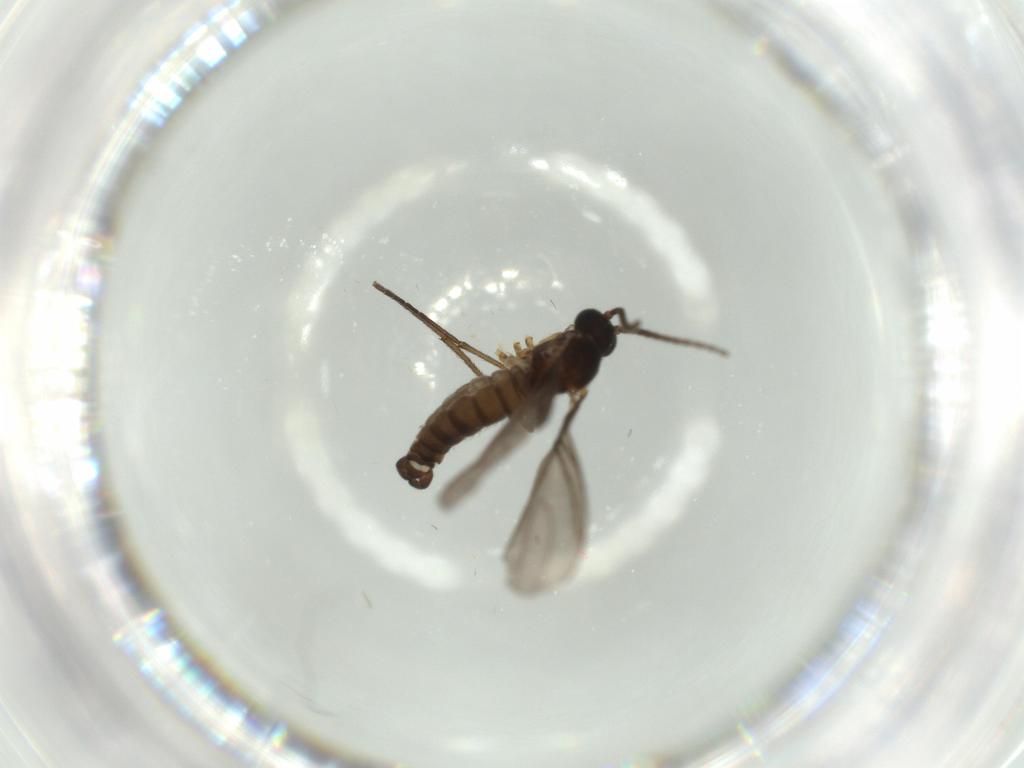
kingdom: Animalia
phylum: Arthropoda
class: Insecta
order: Diptera
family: Sciaridae
